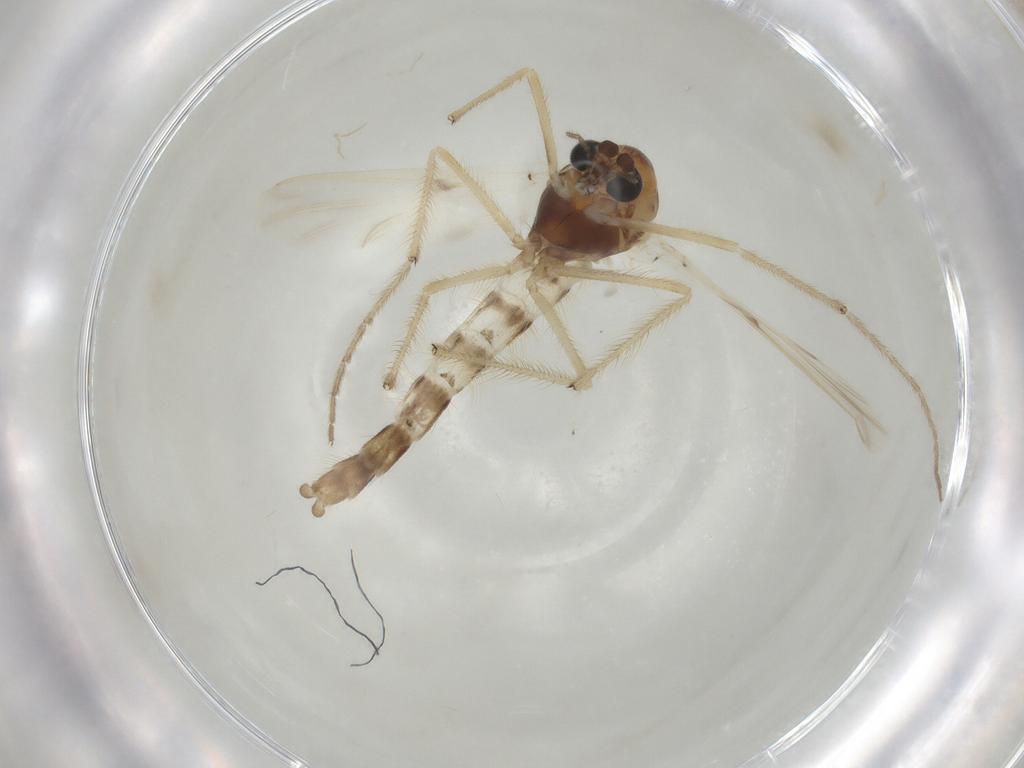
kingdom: Animalia
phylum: Arthropoda
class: Insecta
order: Diptera
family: Chironomidae
